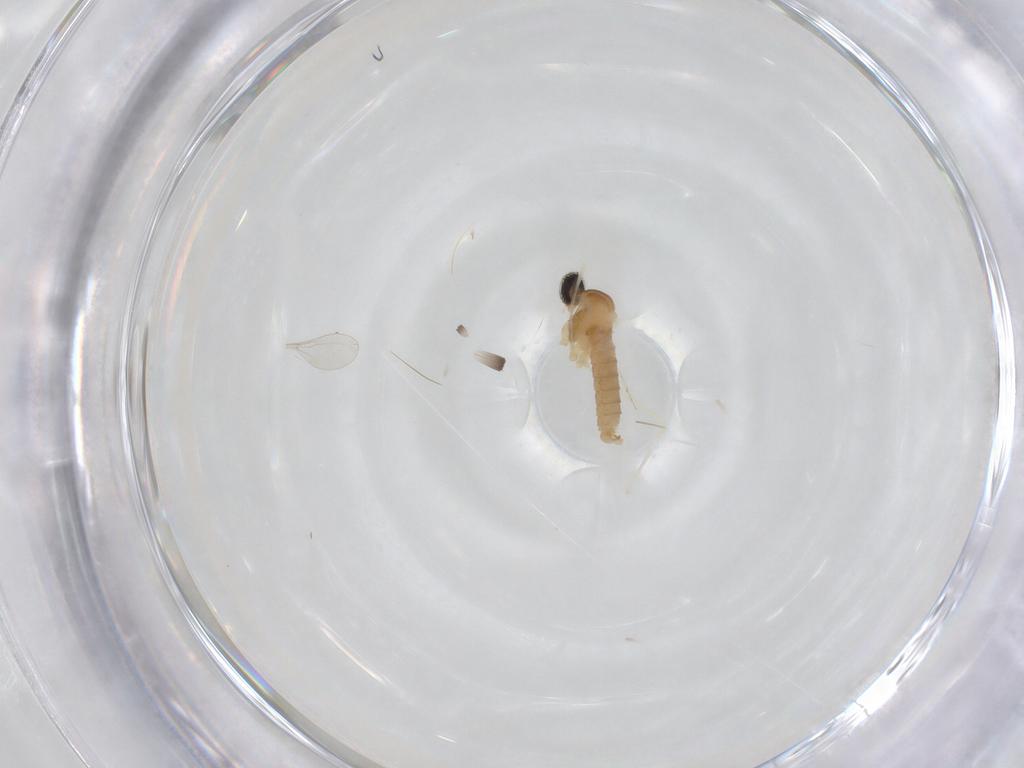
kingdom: Animalia
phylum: Arthropoda
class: Insecta
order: Diptera
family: Cecidomyiidae
